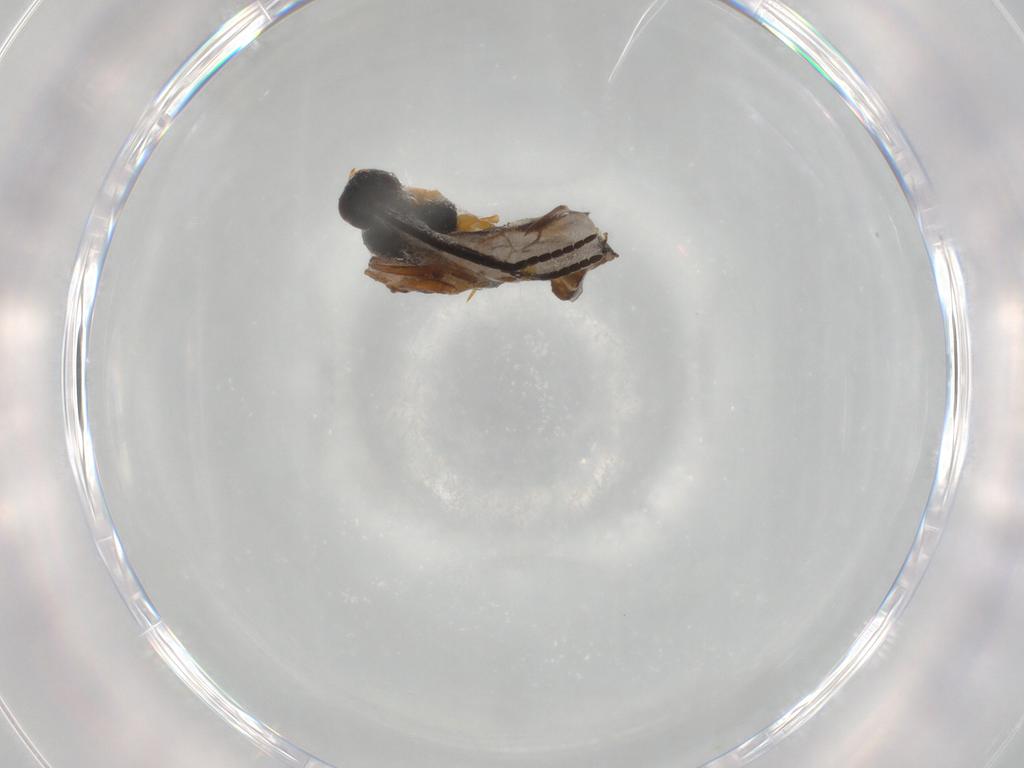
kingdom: Animalia
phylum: Arthropoda
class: Insecta
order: Hymenoptera
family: Braconidae
